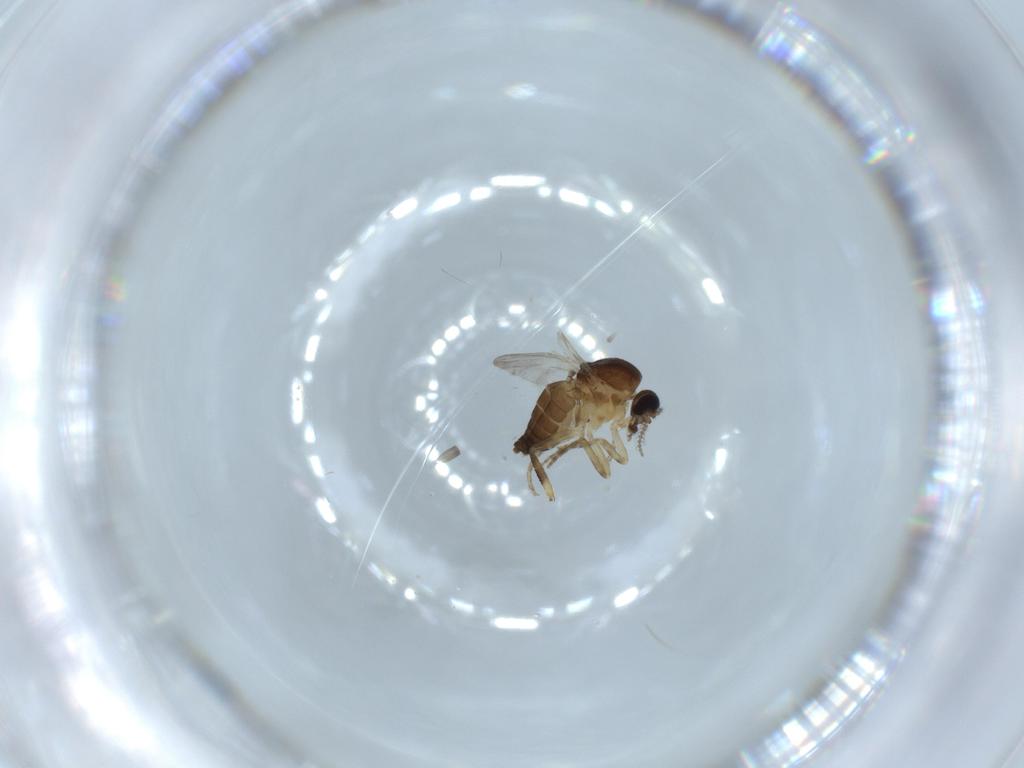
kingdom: Animalia
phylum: Arthropoda
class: Insecta
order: Diptera
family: Ceratopogonidae
